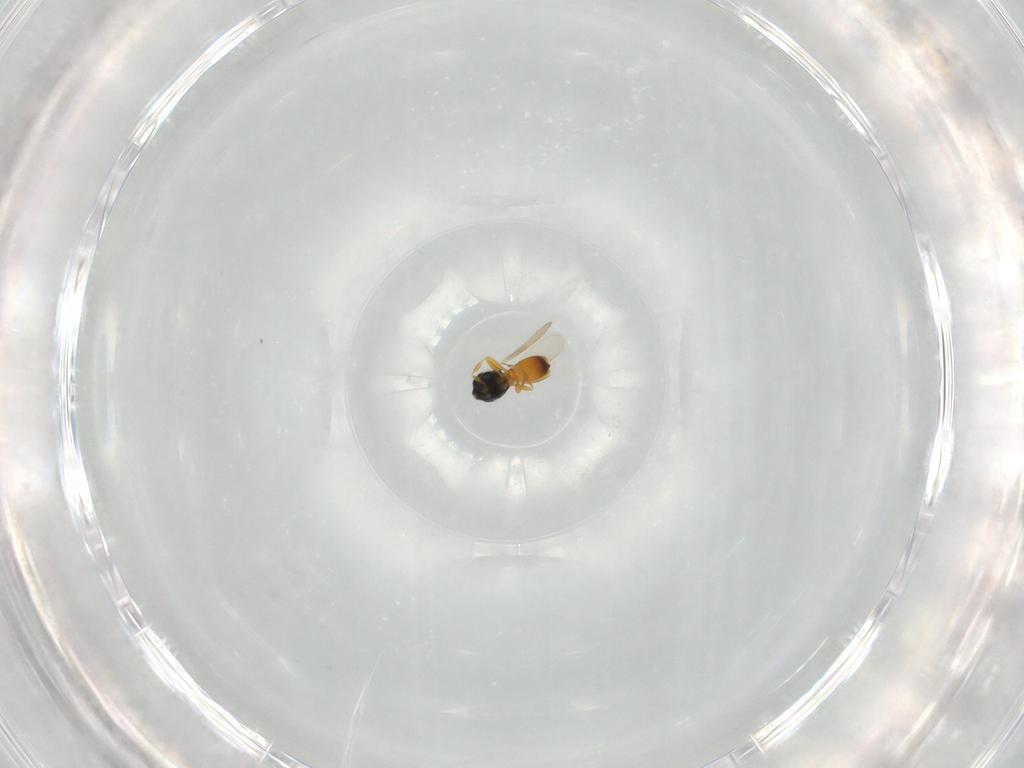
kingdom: Animalia
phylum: Arthropoda
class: Insecta
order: Hymenoptera
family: Scelionidae
